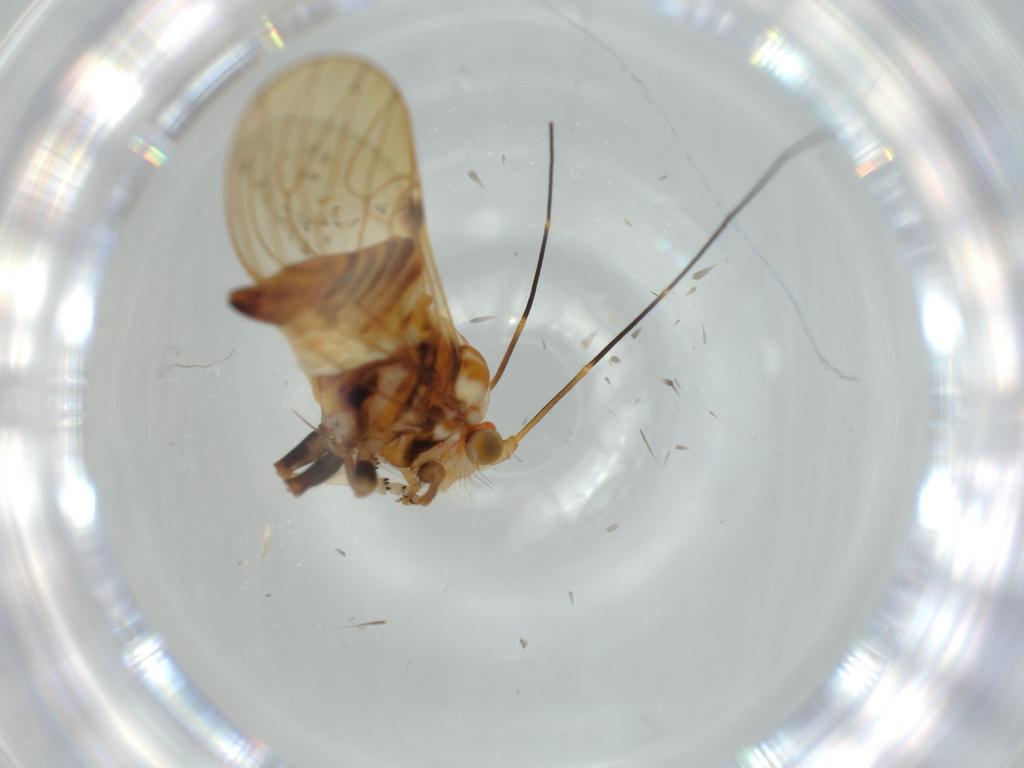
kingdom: Animalia
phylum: Arthropoda
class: Insecta
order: Hemiptera
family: Psyllidae
